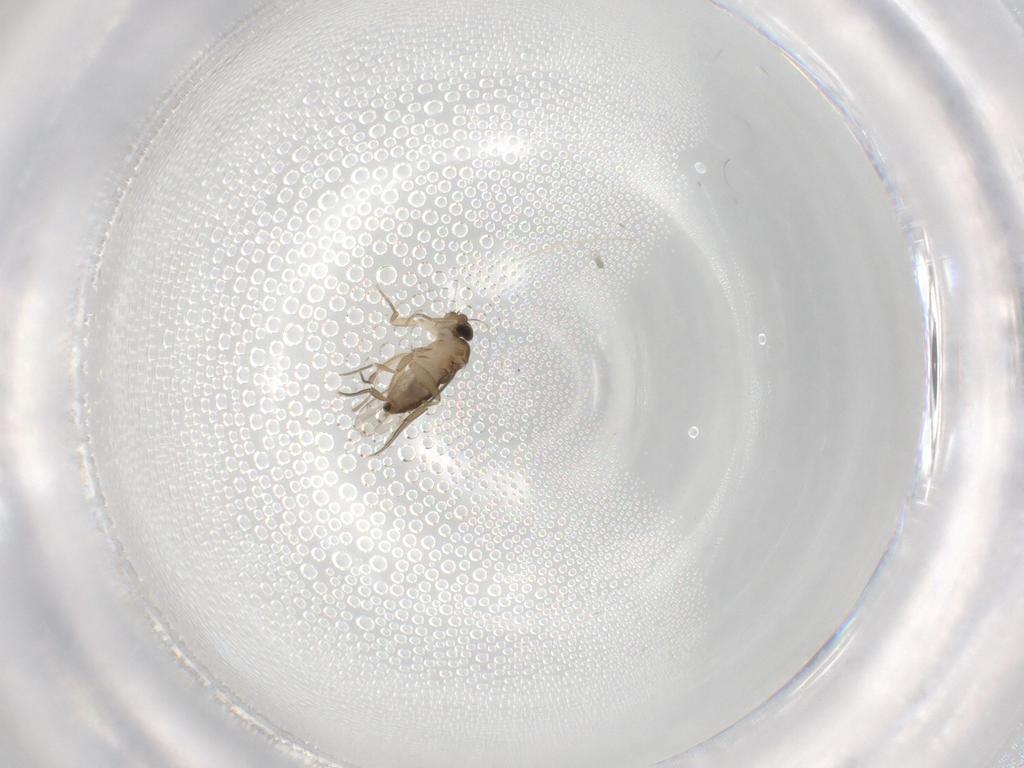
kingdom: Animalia
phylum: Arthropoda
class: Insecta
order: Diptera
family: Phoridae
